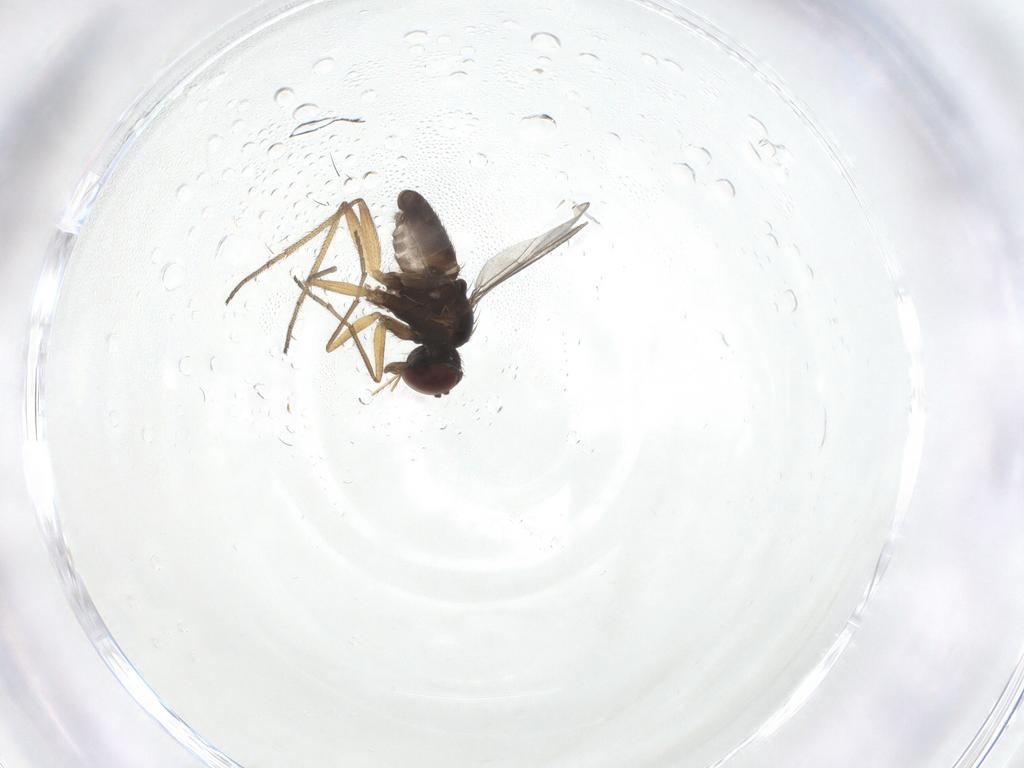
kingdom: Animalia
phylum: Arthropoda
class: Insecta
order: Diptera
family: Dolichopodidae
